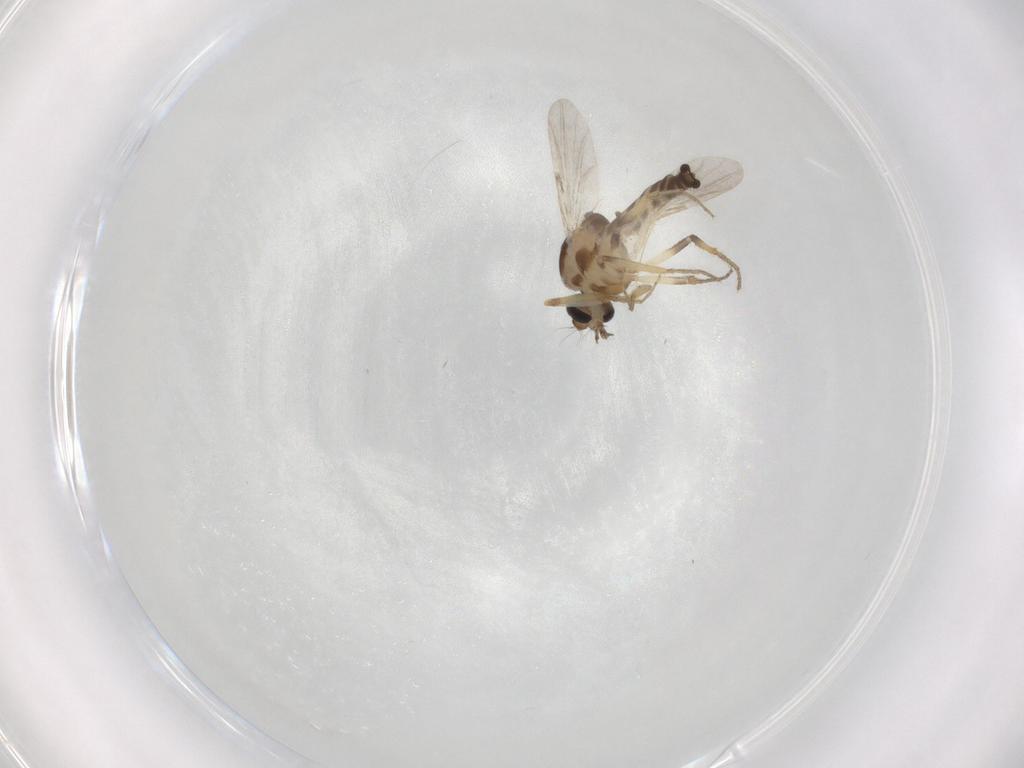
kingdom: Animalia
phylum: Arthropoda
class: Insecta
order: Diptera
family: Ceratopogonidae
